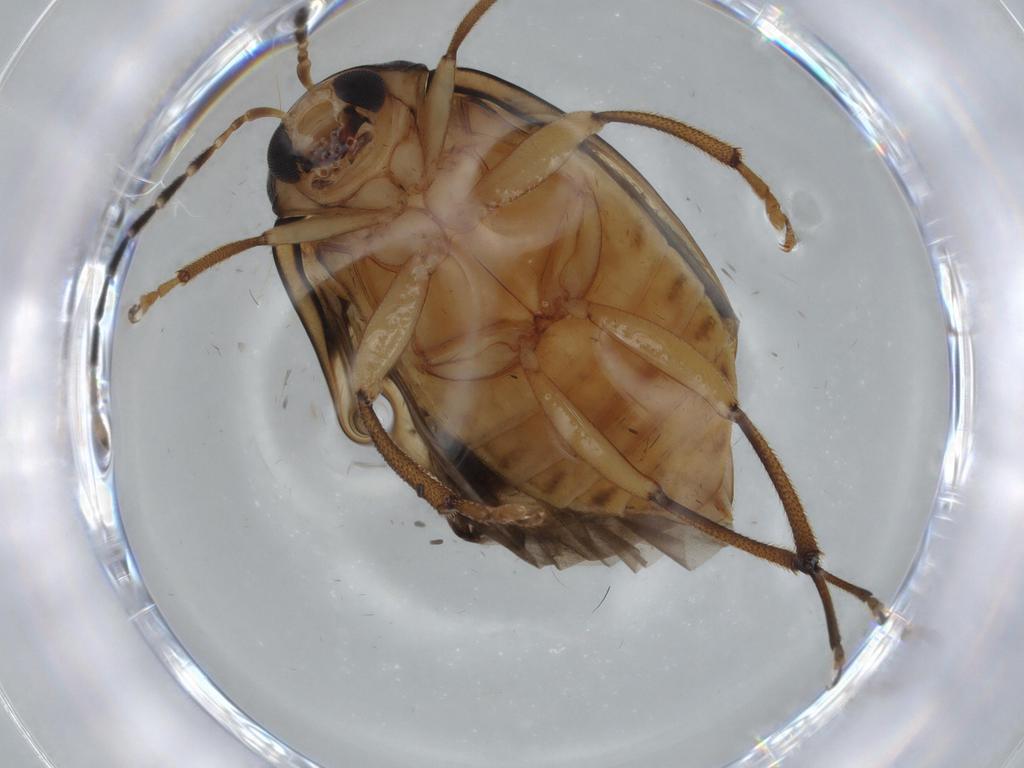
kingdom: Animalia
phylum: Arthropoda
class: Insecta
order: Coleoptera
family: Chrysomelidae
